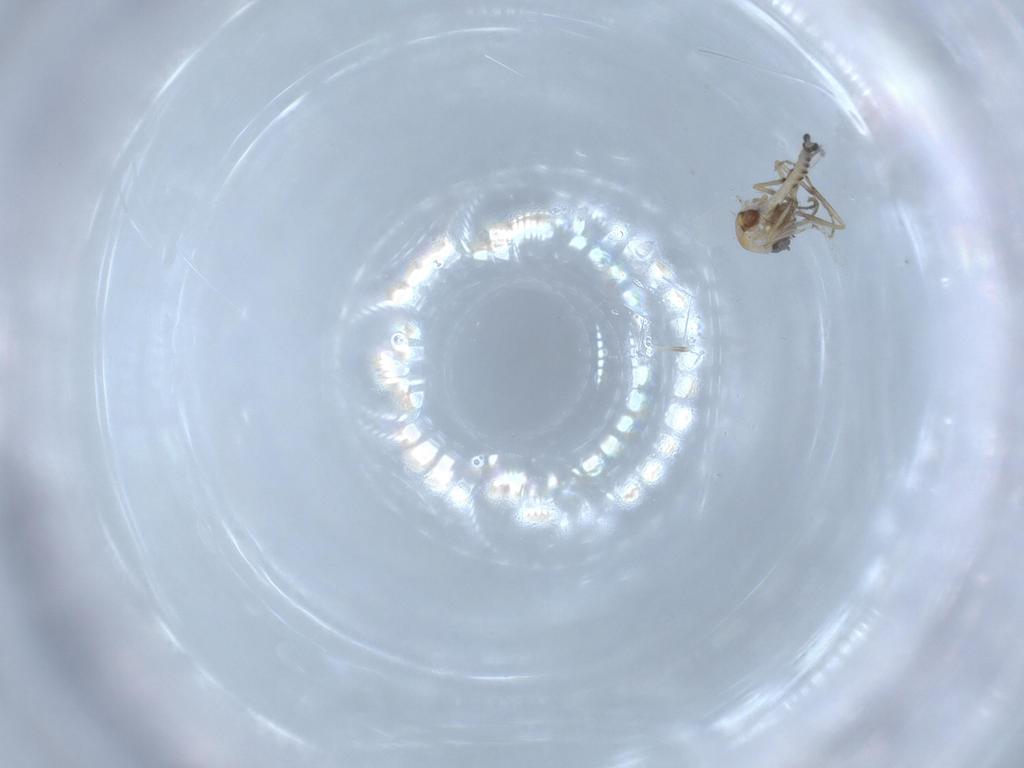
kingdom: Animalia
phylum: Arthropoda
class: Insecta
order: Diptera
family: Ceratopogonidae
